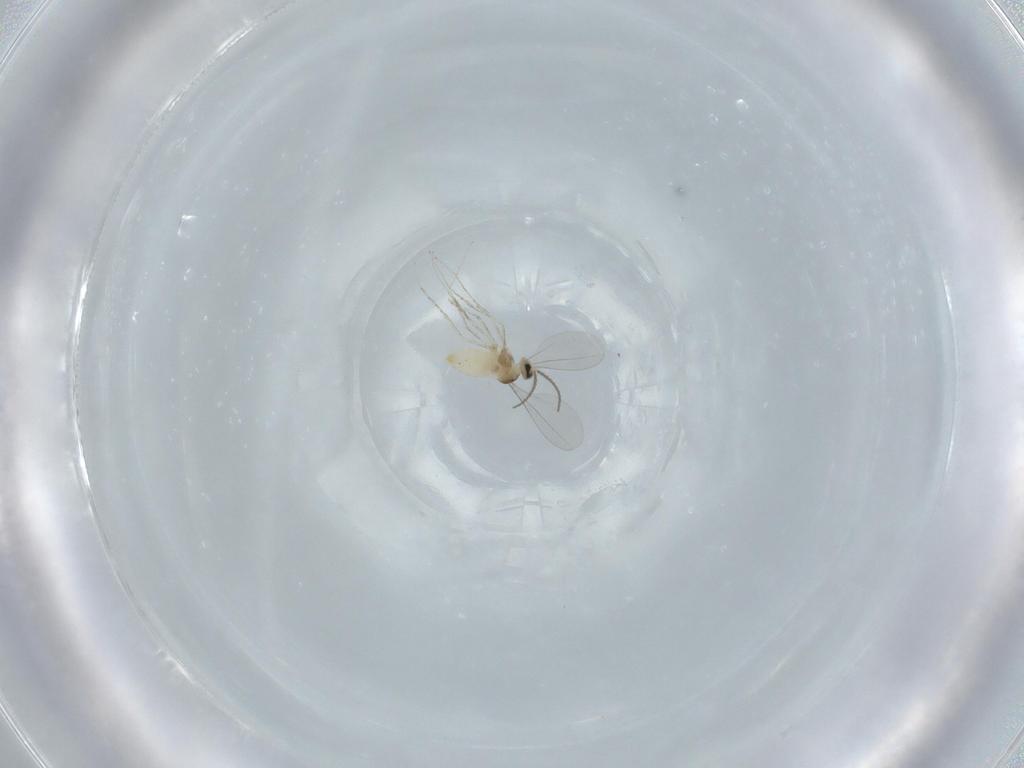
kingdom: Animalia
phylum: Arthropoda
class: Insecta
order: Diptera
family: Cecidomyiidae
